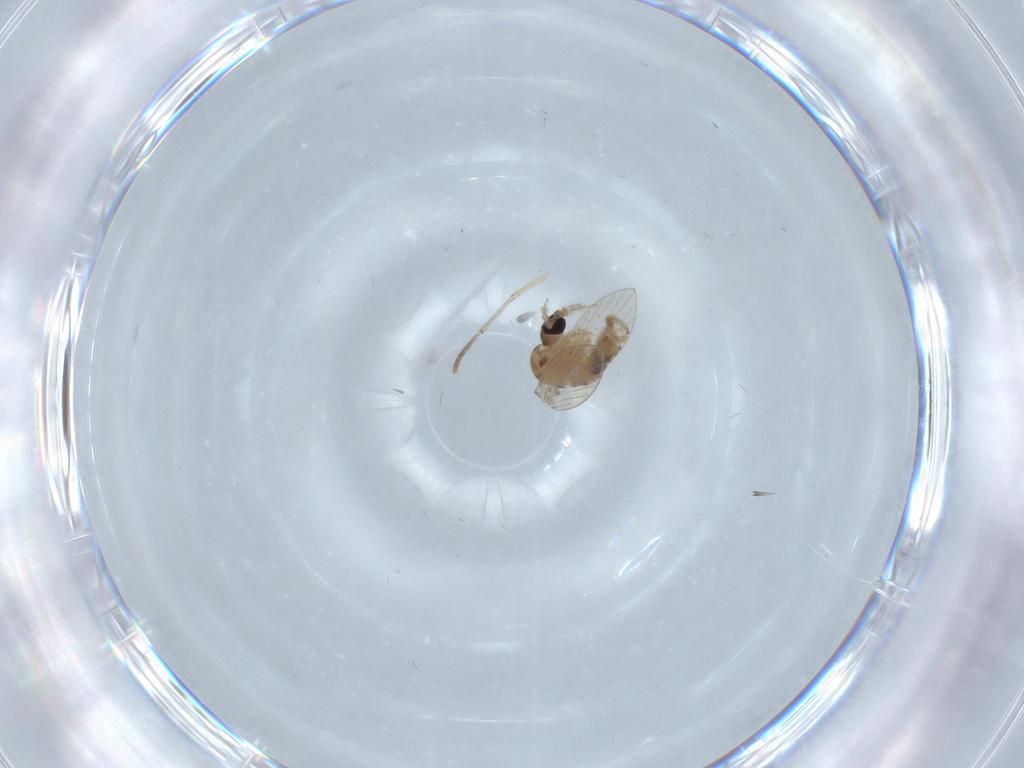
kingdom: Animalia
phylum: Arthropoda
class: Insecta
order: Diptera
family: Psychodidae
